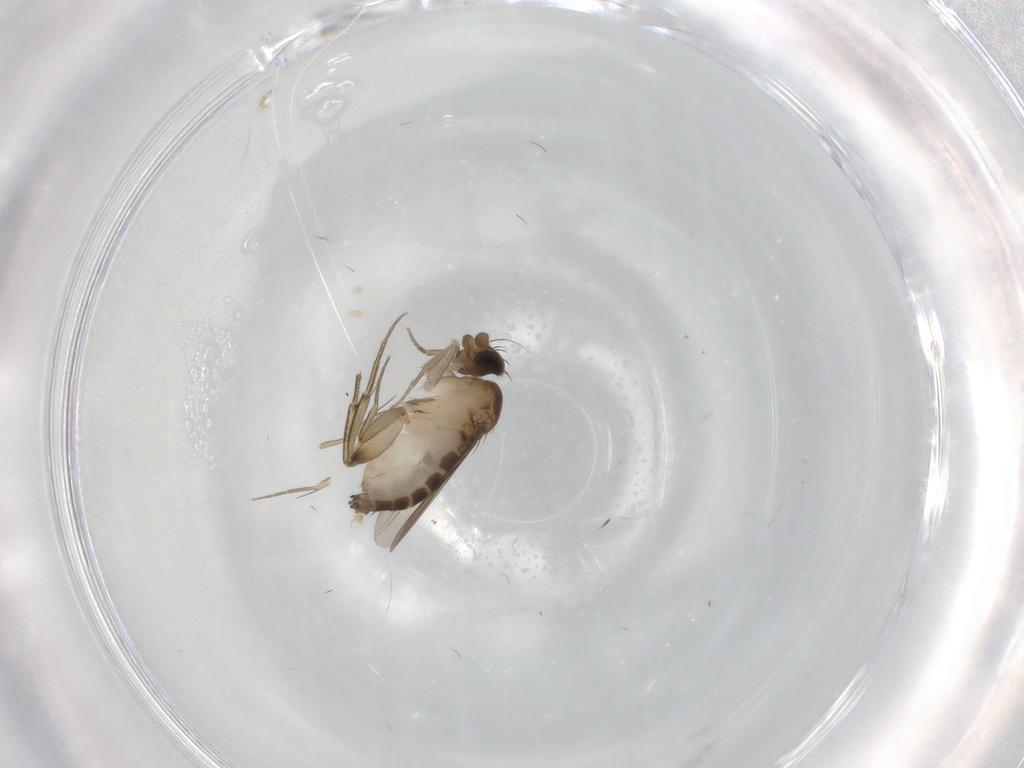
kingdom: Animalia
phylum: Arthropoda
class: Insecta
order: Diptera
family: Phoridae
